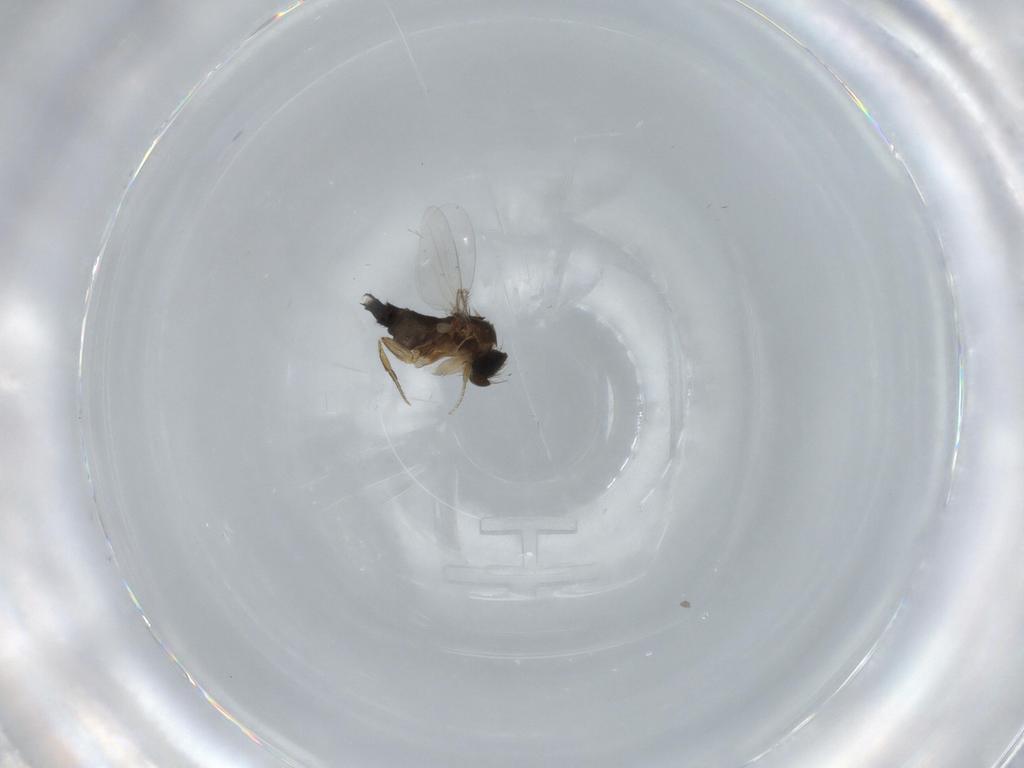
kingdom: Animalia
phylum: Arthropoda
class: Insecta
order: Diptera
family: Phoridae
